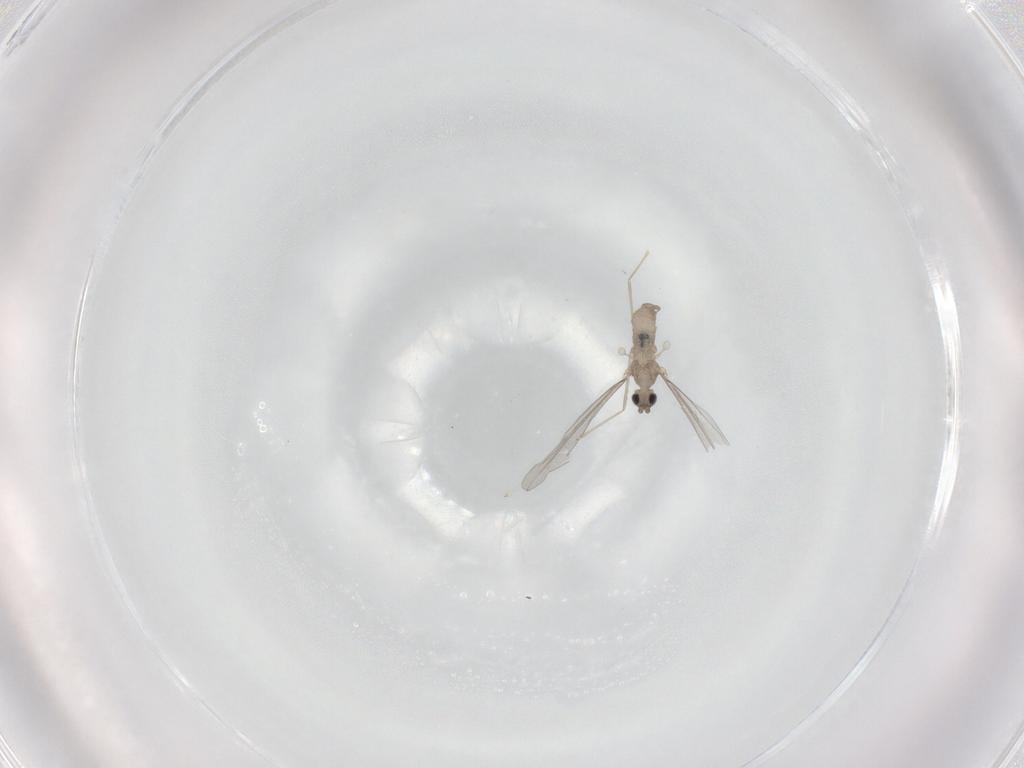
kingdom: Animalia
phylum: Arthropoda
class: Insecta
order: Diptera
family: Cecidomyiidae
